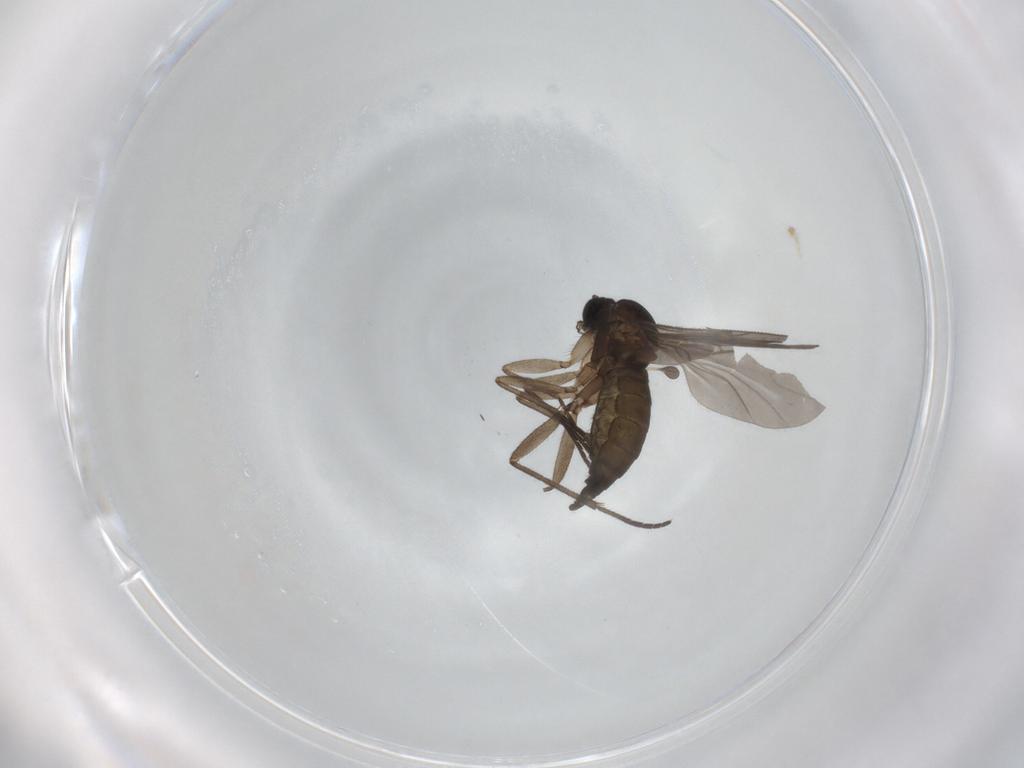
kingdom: Animalia
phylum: Arthropoda
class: Insecta
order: Diptera
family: Sciaridae
